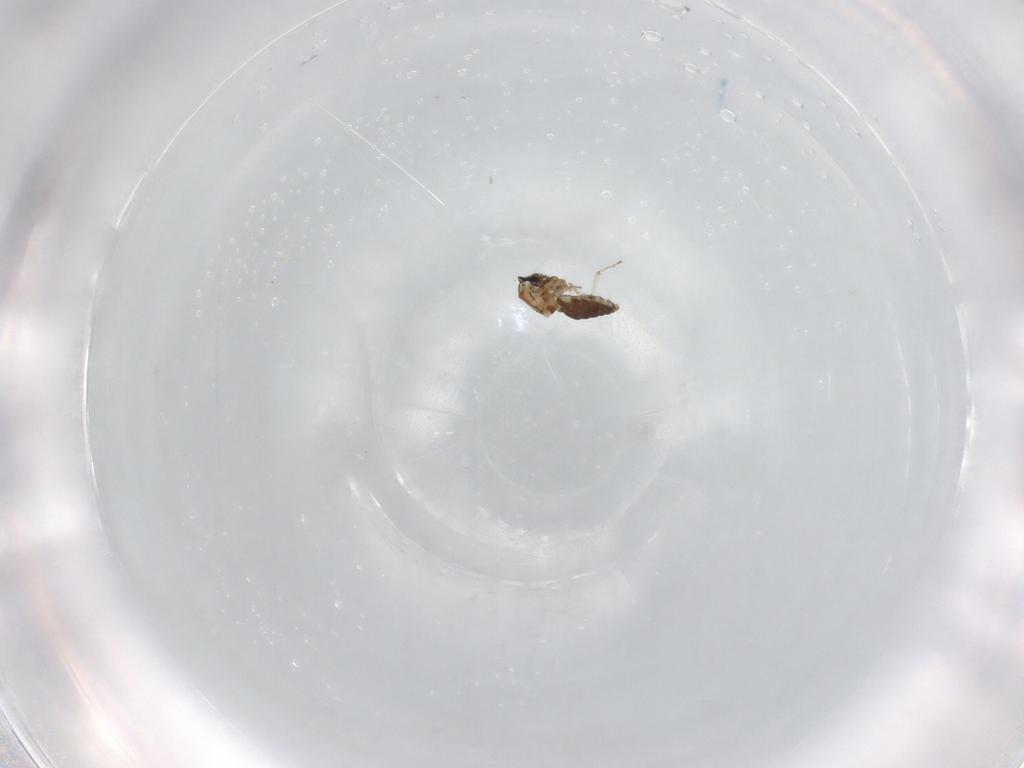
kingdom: Animalia
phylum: Arthropoda
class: Insecta
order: Diptera
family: Ceratopogonidae
